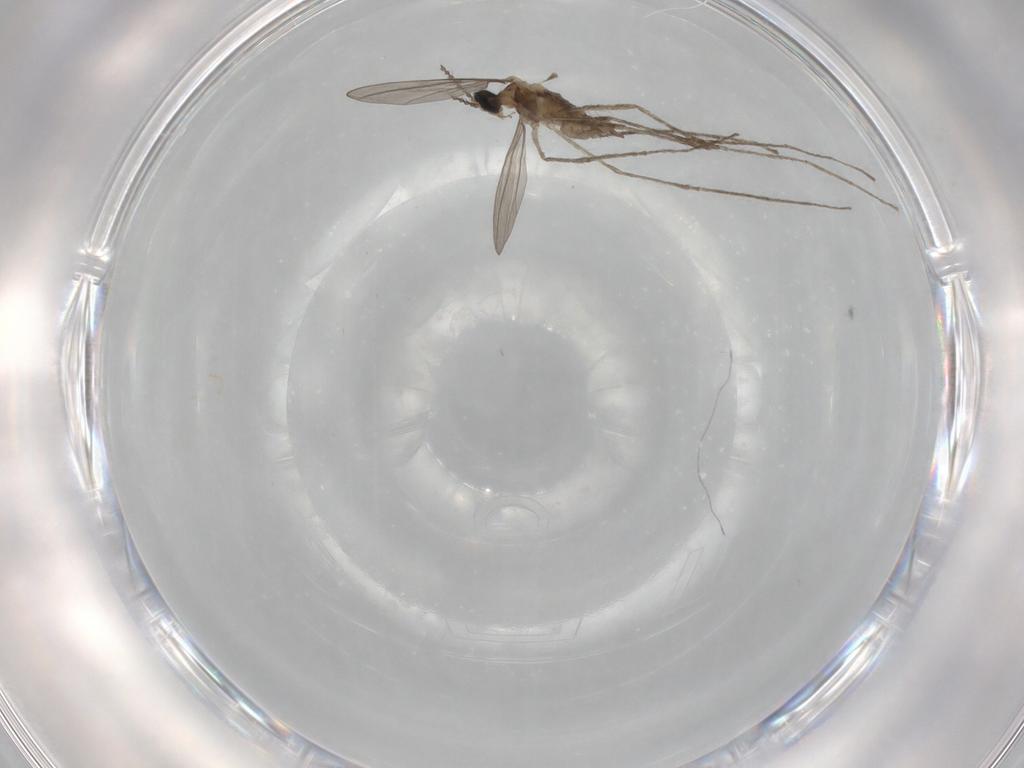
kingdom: Animalia
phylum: Arthropoda
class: Insecta
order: Diptera
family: Cecidomyiidae
